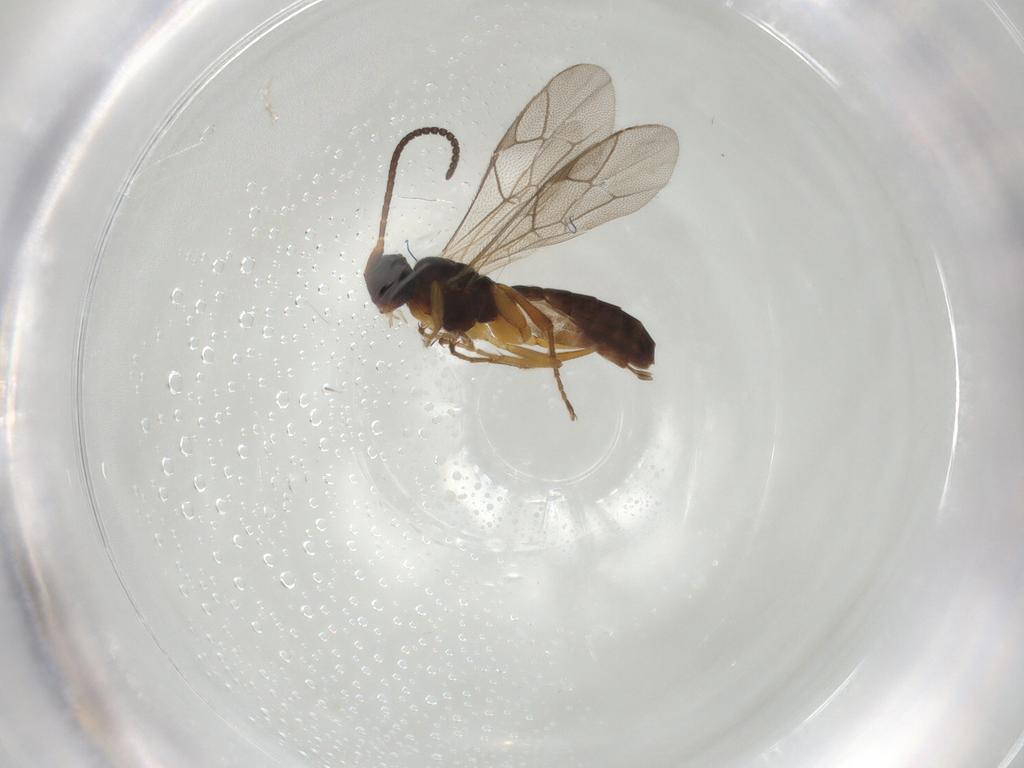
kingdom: Animalia
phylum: Arthropoda
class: Insecta
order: Hymenoptera
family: Ichneumonidae
